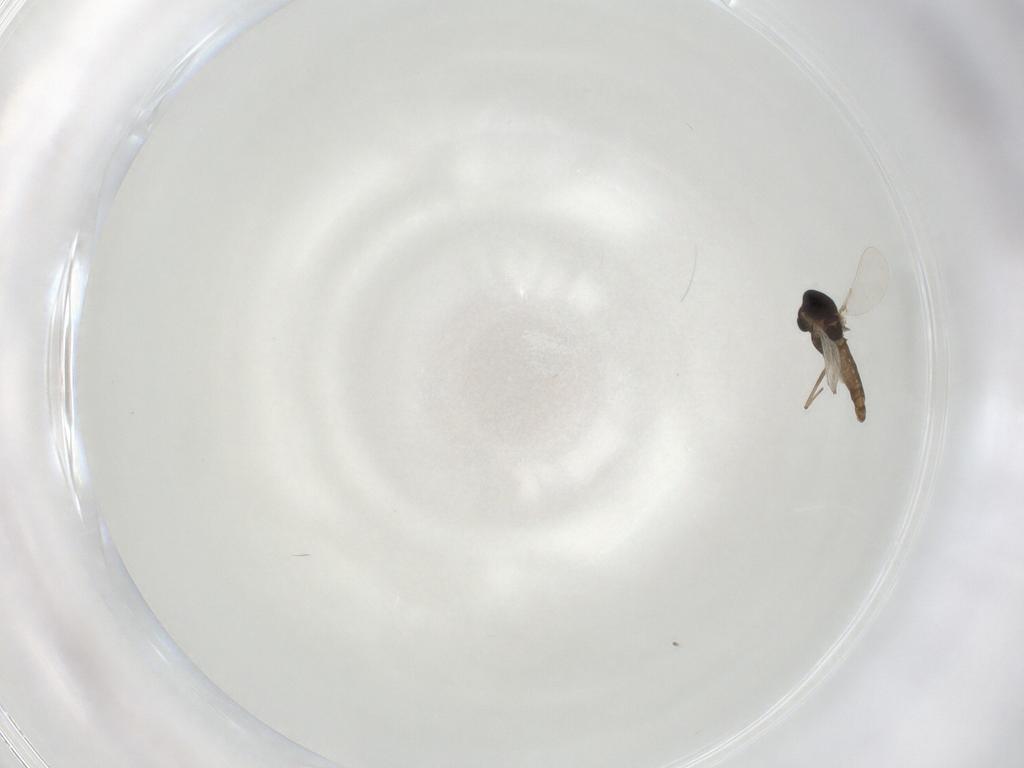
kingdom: Animalia
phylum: Arthropoda
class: Insecta
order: Diptera
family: Chironomidae
